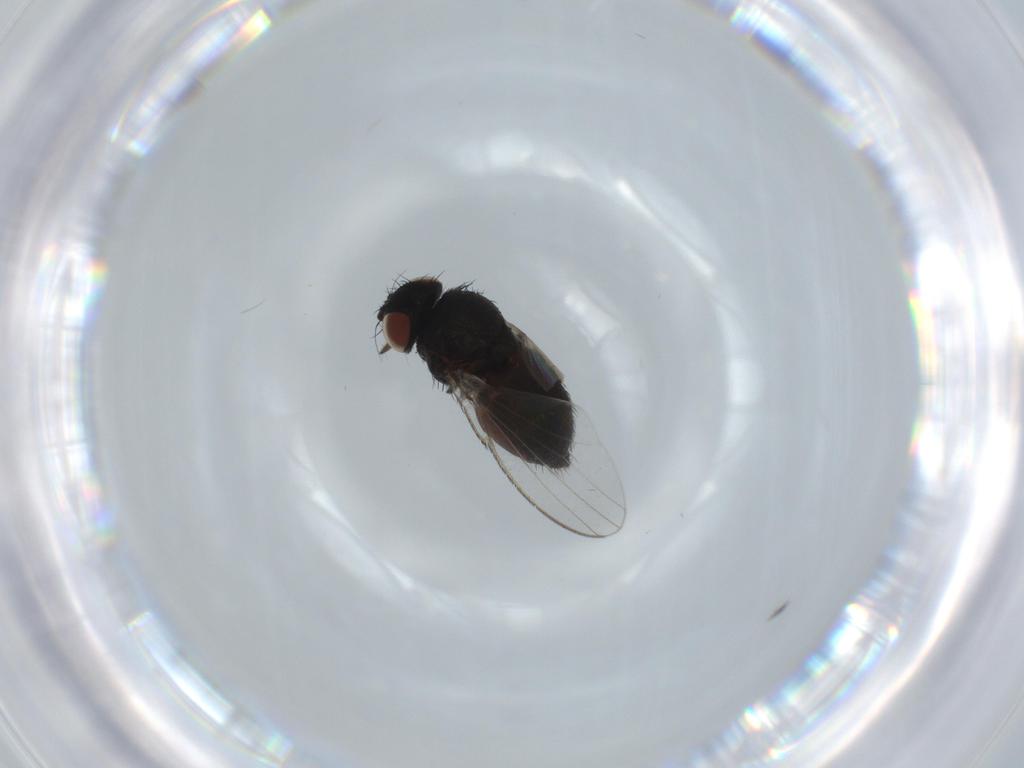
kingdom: Animalia
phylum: Arthropoda
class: Insecta
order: Diptera
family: Milichiidae
